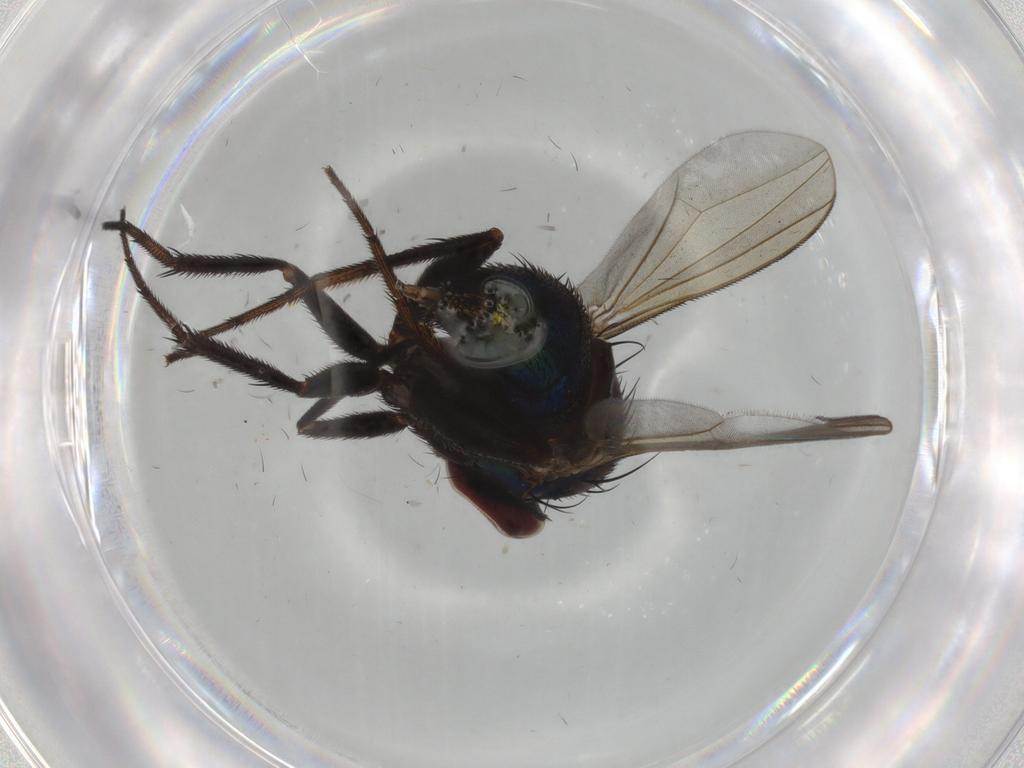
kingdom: Animalia
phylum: Arthropoda
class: Insecta
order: Diptera
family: Dolichopodidae
